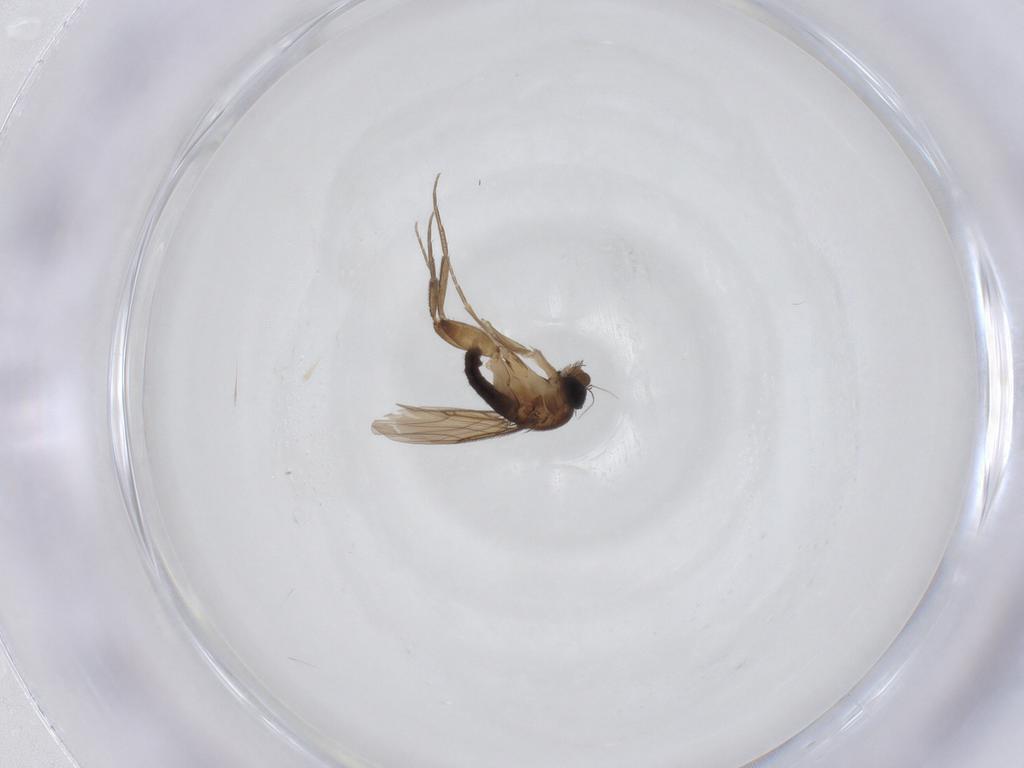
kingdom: Animalia
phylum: Arthropoda
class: Insecta
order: Diptera
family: Phoridae
